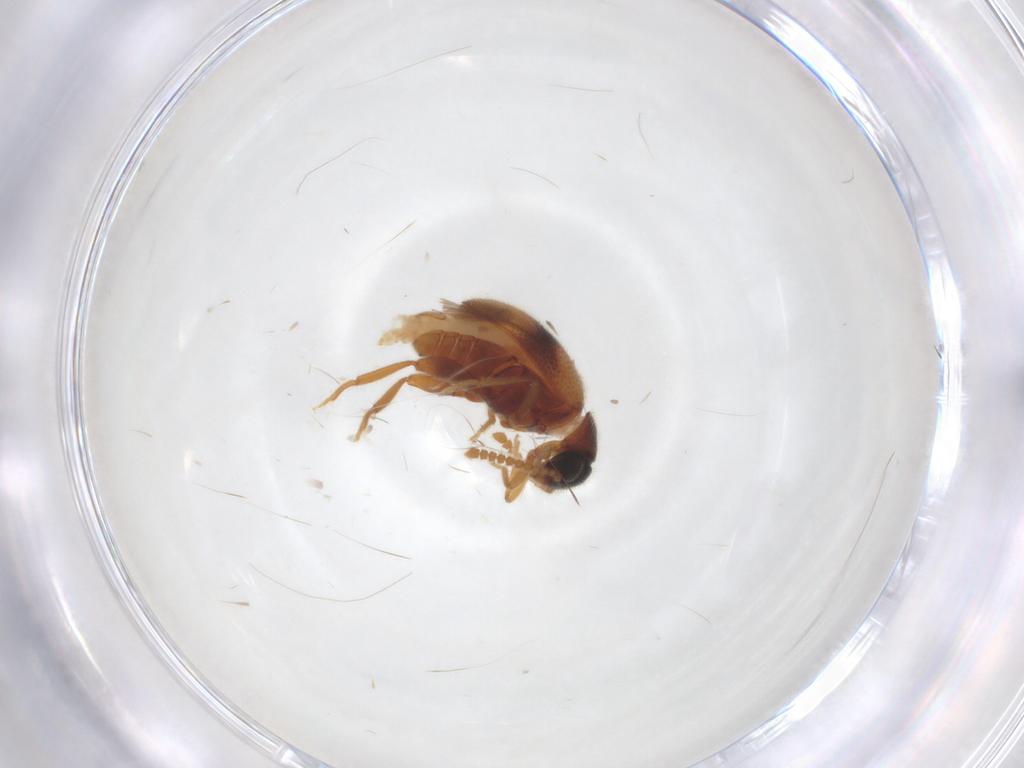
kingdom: Animalia
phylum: Arthropoda
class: Insecta
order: Coleoptera
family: Aderidae
